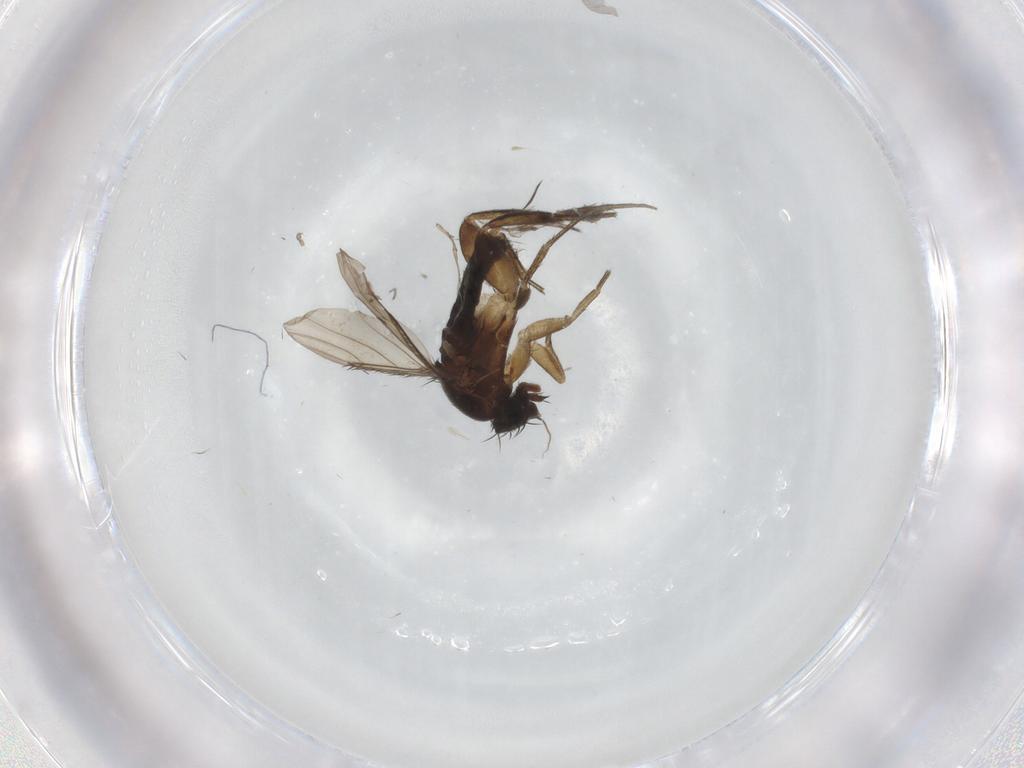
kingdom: Animalia
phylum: Arthropoda
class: Insecta
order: Diptera
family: Phoridae
